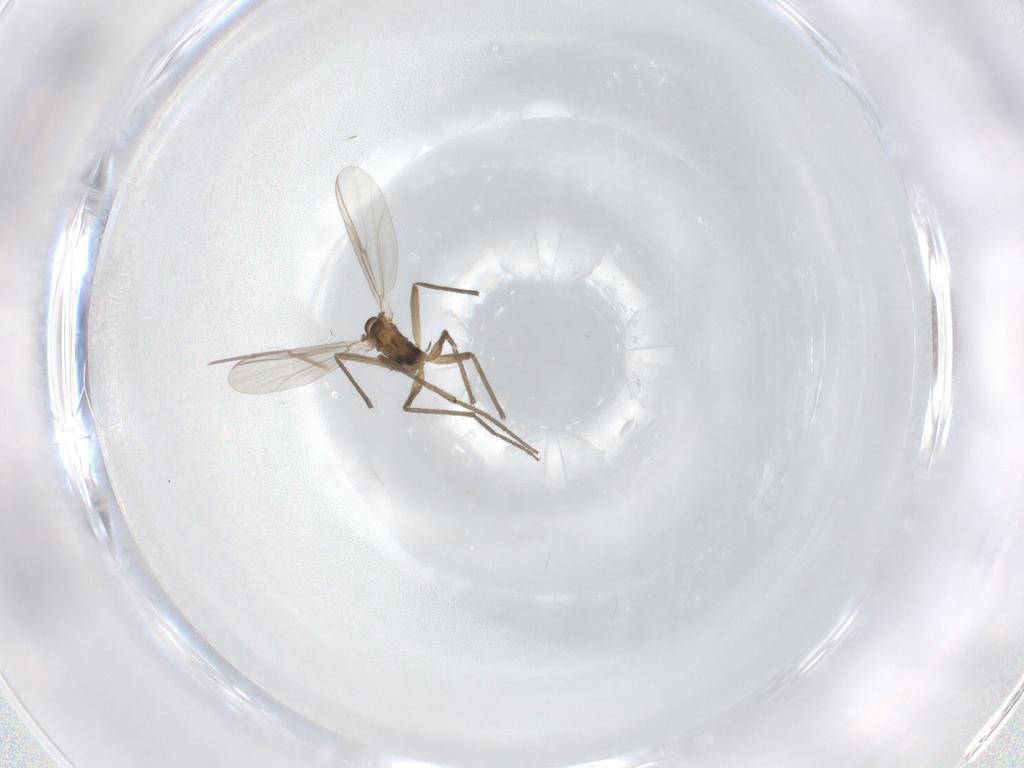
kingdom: Animalia
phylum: Arthropoda
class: Insecta
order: Diptera
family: Chironomidae
